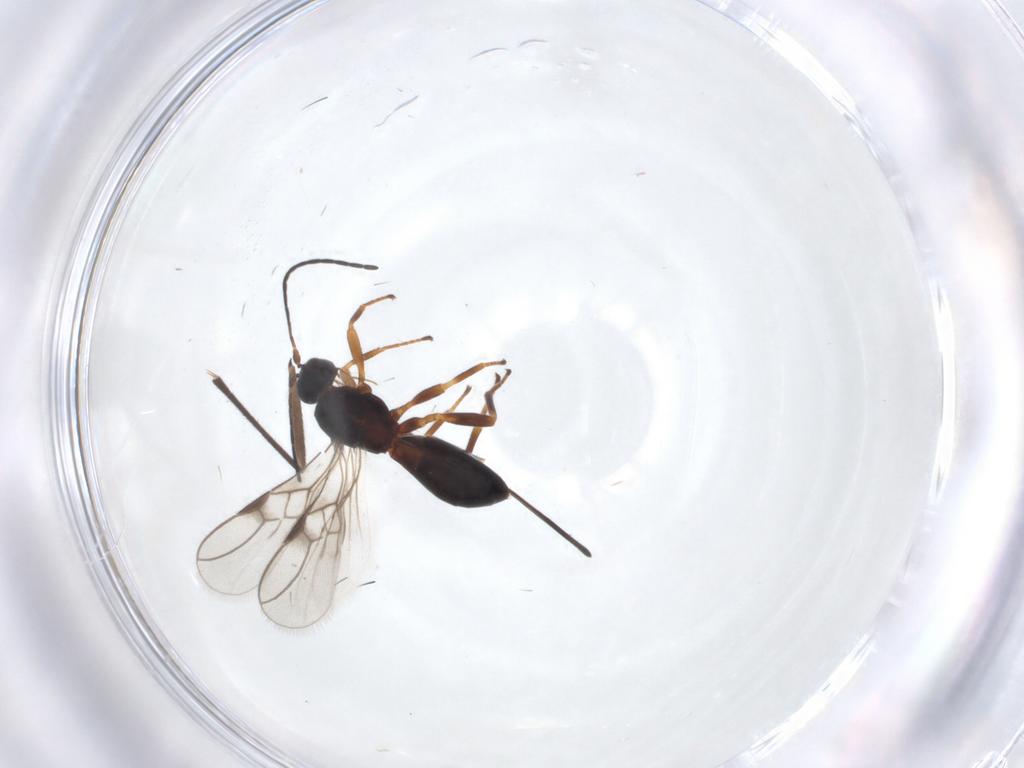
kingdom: Animalia
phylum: Arthropoda
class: Insecta
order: Hymenoptera
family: Braconidae
